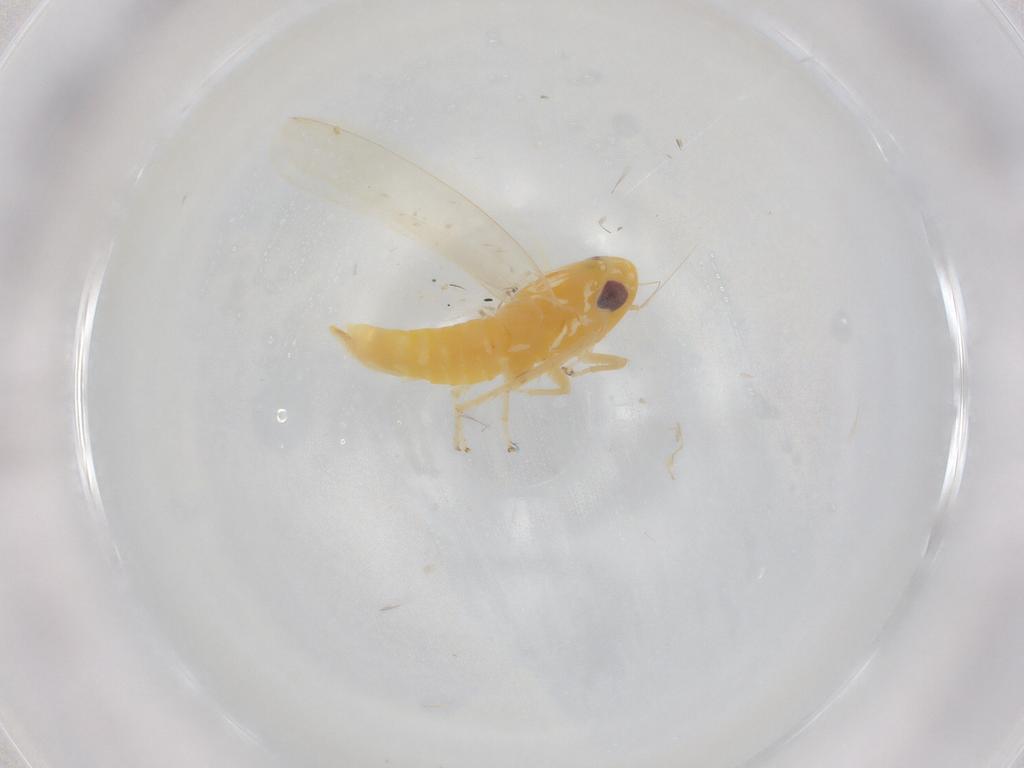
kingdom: Animalia
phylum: Arthropoda
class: Insecta
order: Hemiptera
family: Cicadellidae
